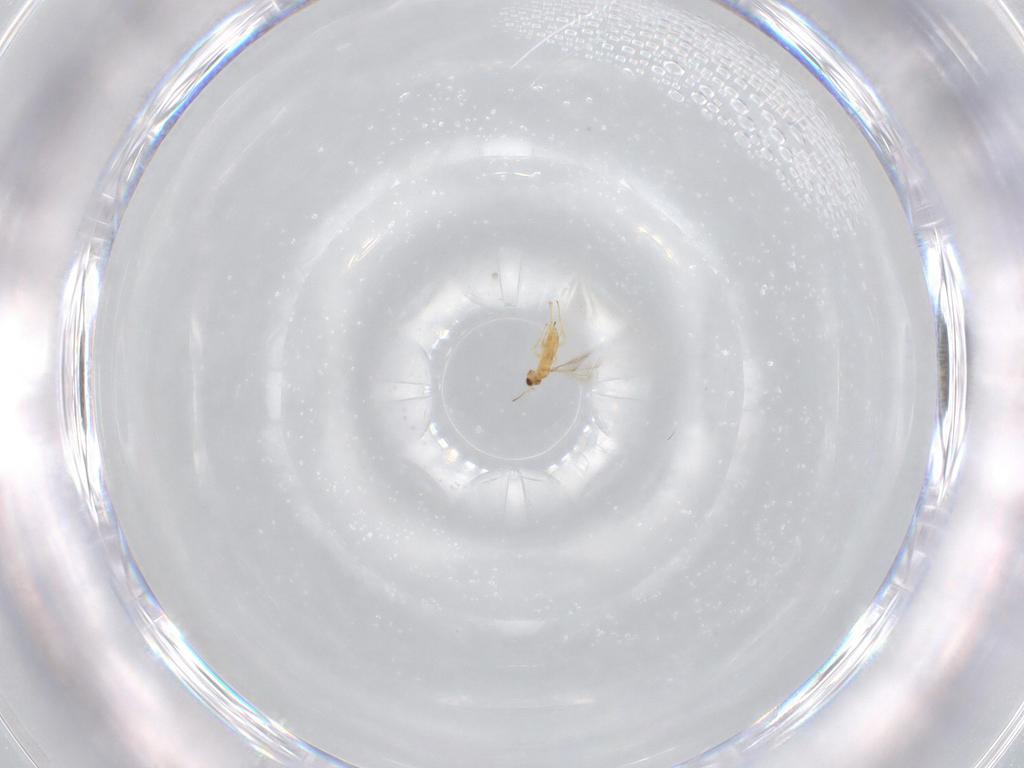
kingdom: Animalia
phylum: Arthropoda
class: Insecta
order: Hymenoptera
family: Mymaridae
